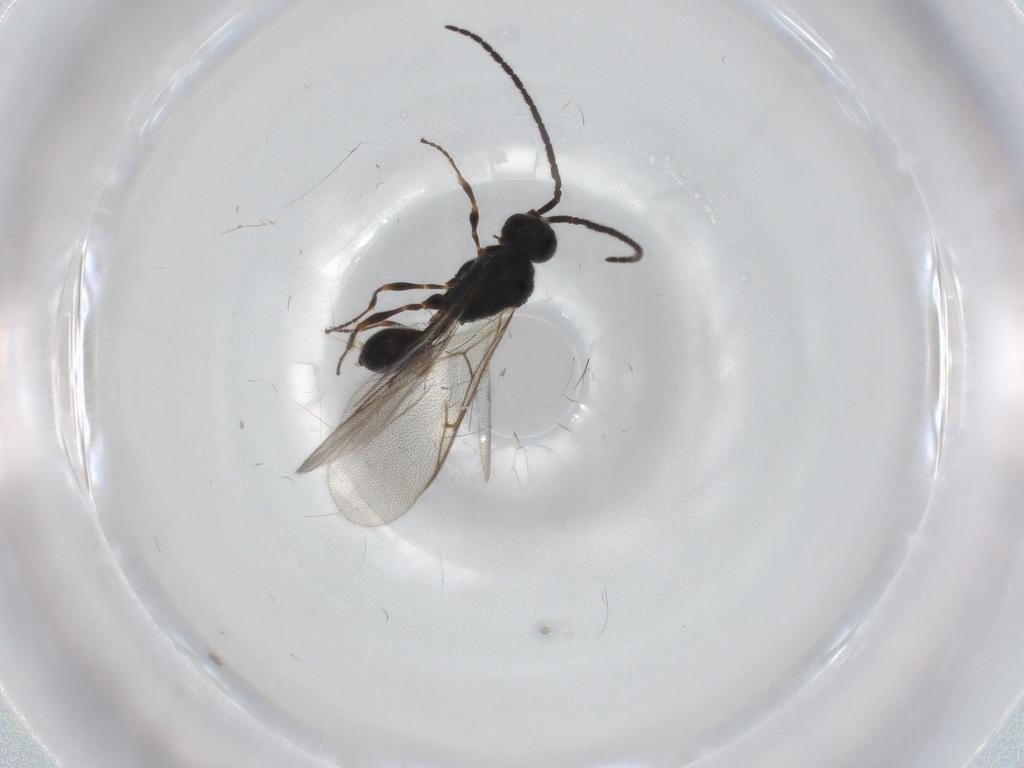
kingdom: Animalia
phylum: Arthropoda
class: Insecta
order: Hymenoptera
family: Diapriidae
